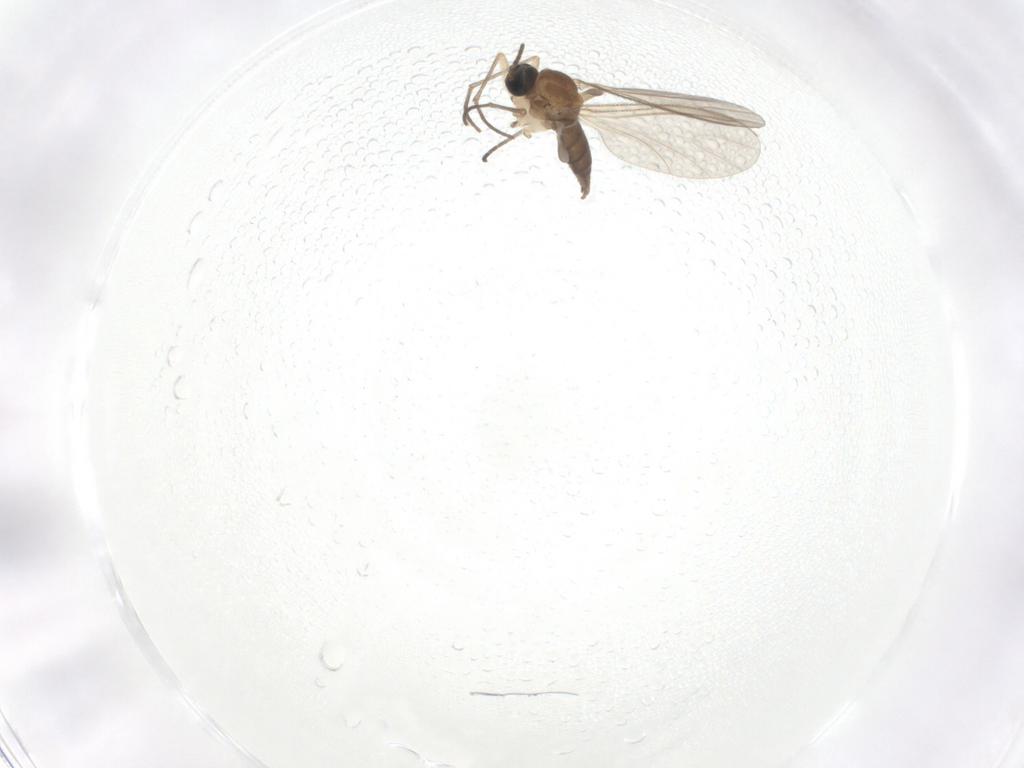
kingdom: Animalia
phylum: Arthropoda
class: Insecta
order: Diptera
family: Sciaridae
